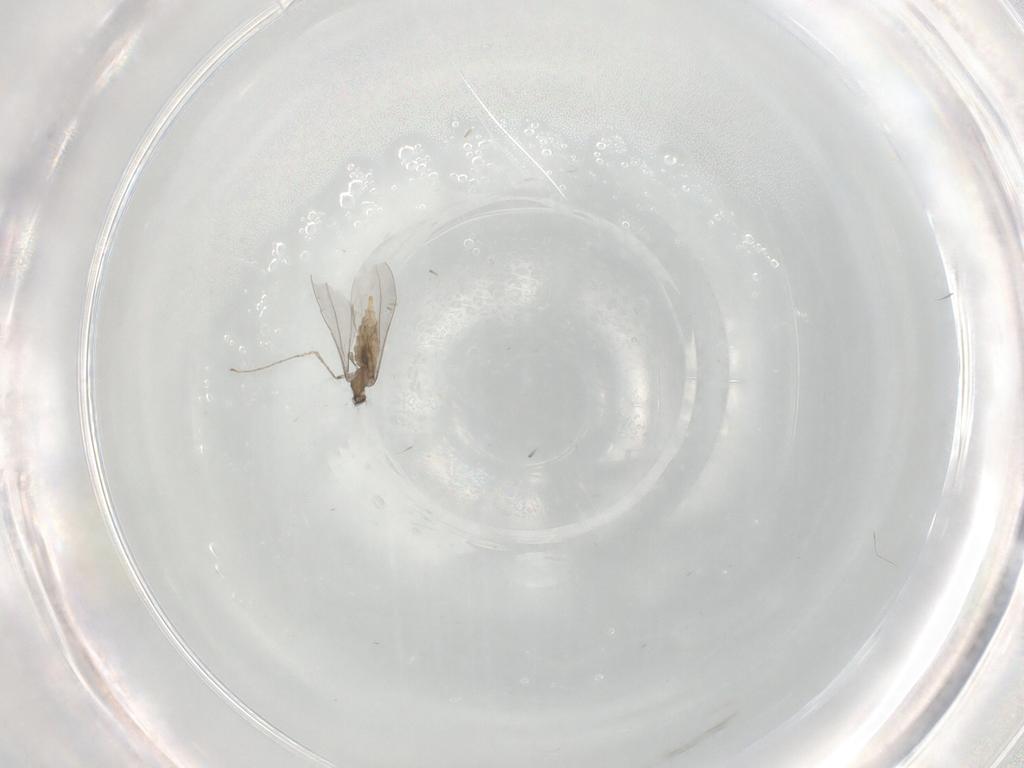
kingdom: Animalia
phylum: Arthropoda
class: Insecta
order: Diptera
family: Cecidomyiidae
